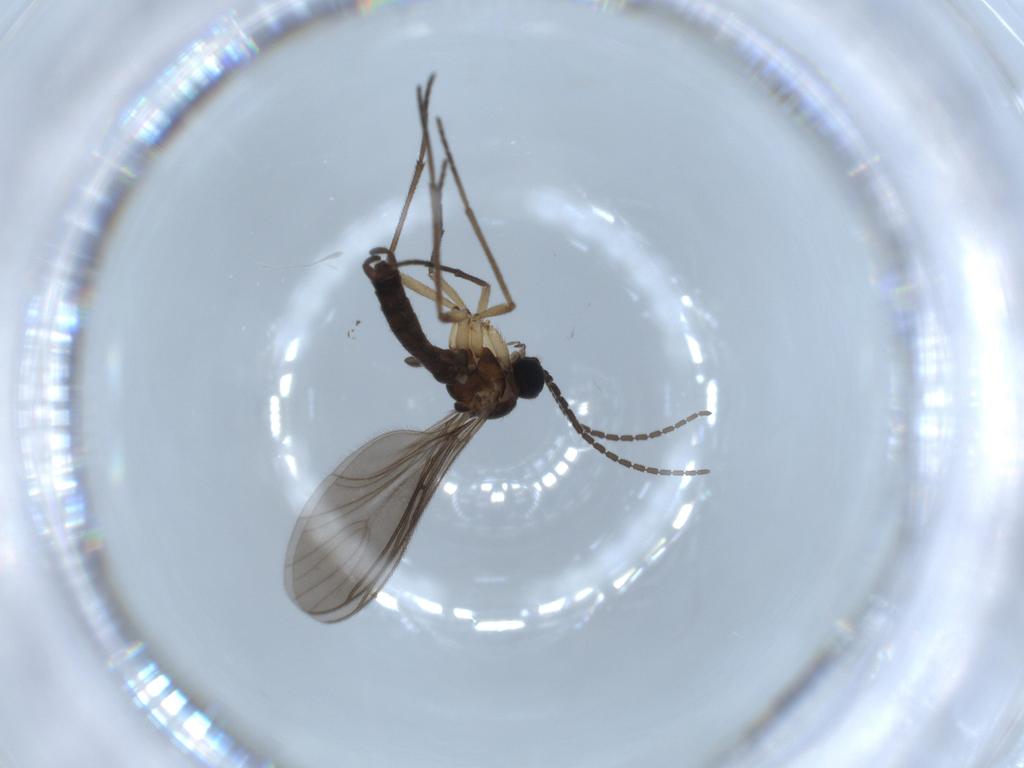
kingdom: Animalia
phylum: Arthropoda
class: Insecta
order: Diptera
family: Sciaridae
